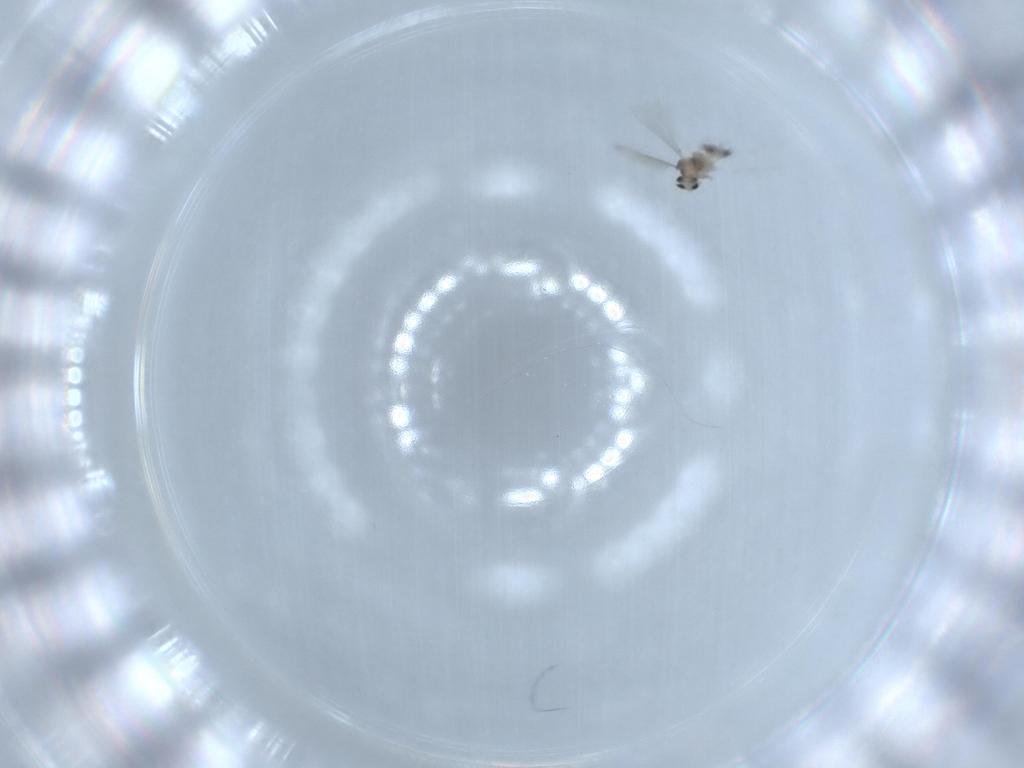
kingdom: Animalia
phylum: Arthropoda
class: Insecta
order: Diptera
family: Cecidomyiidae
